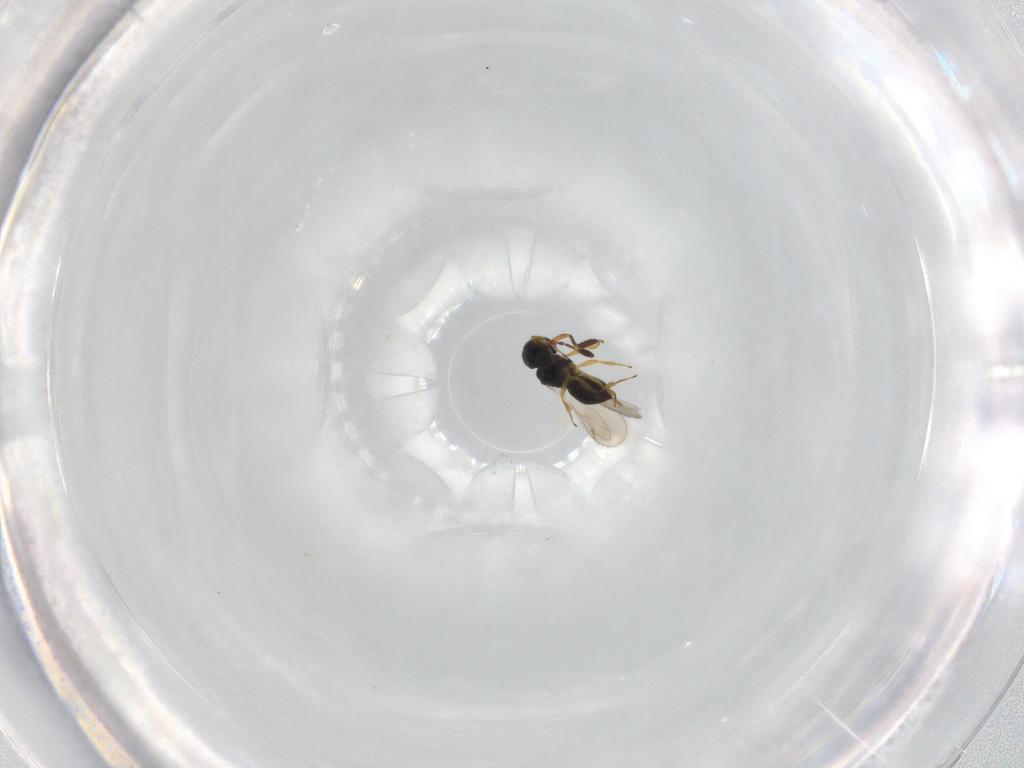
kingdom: Animalia
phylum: Arthropoda
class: Insecta
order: Hymenoptera
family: Scelionidae
